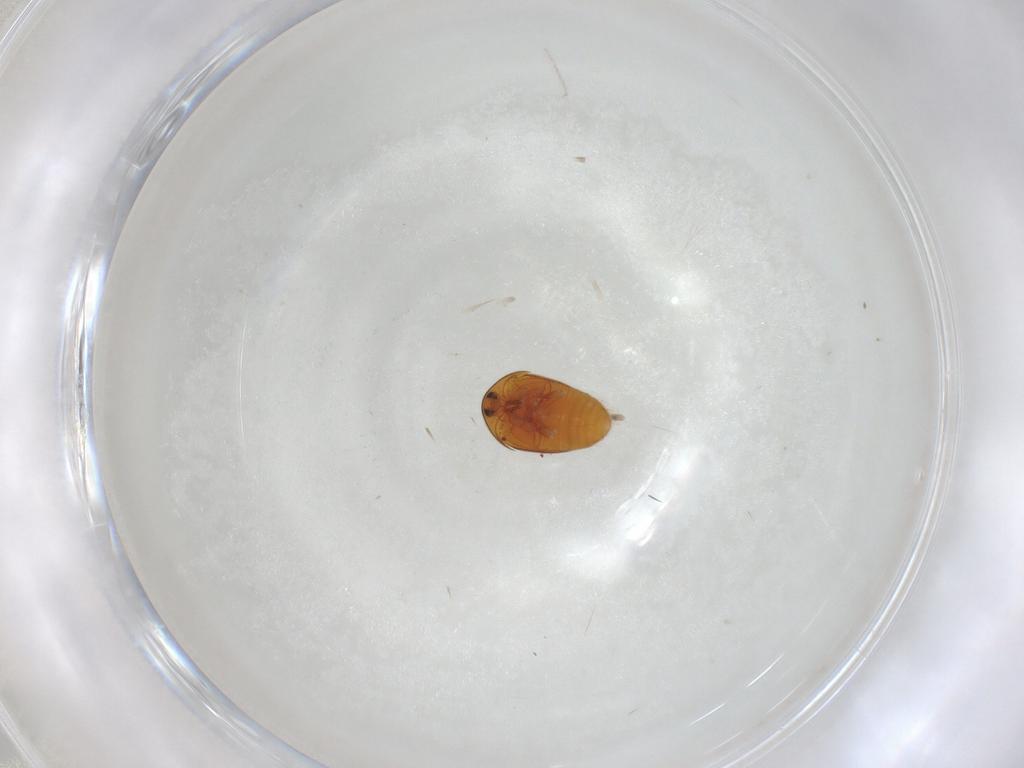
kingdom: Animalia
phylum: Arthropoda
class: Insecta
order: Coleoptera
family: Corylophidae
